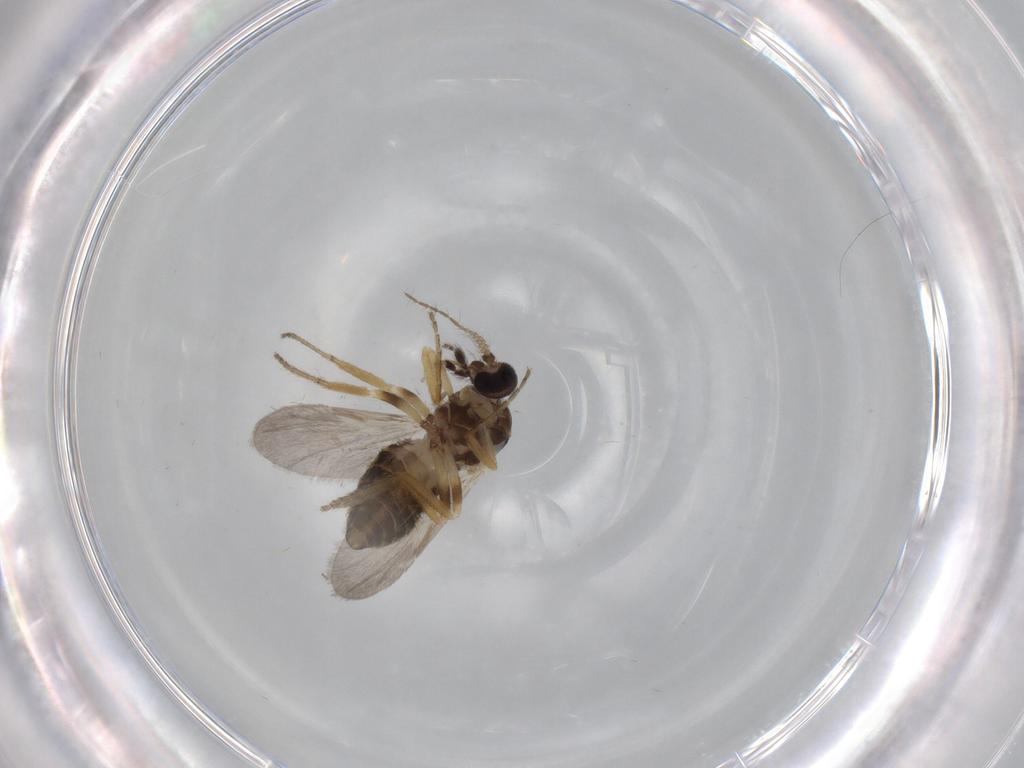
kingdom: Animalia
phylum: Arthropoda
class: Insecta
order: Diptera
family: Ceratopogonidae
